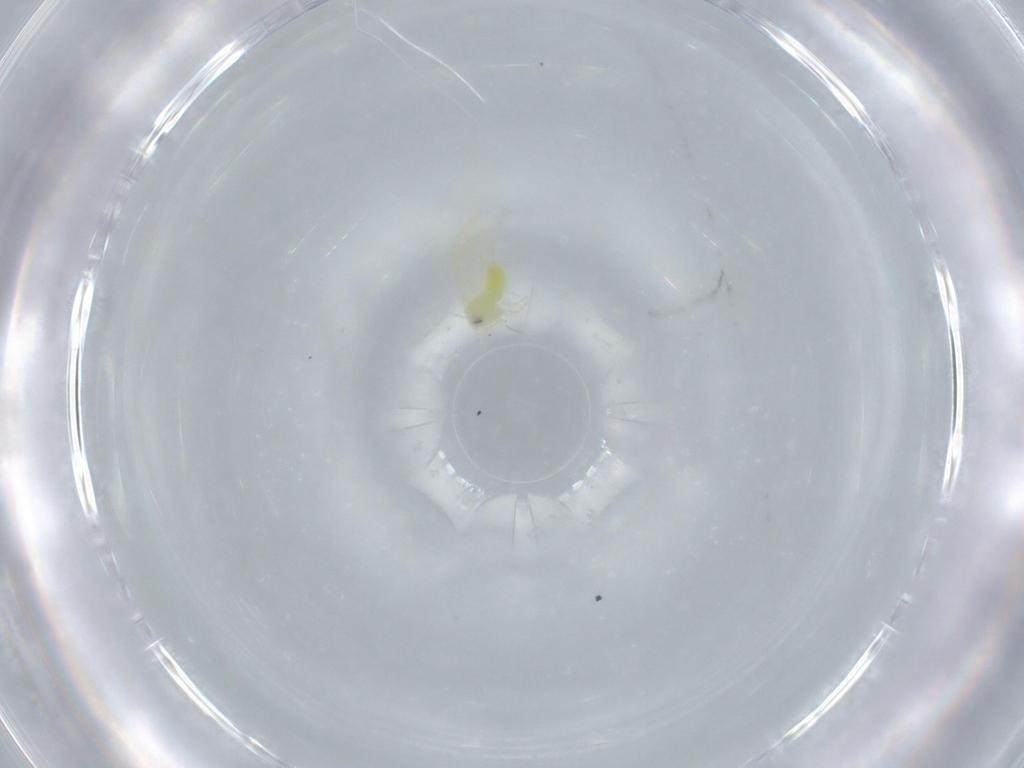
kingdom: Animalia
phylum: Arthropoda
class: Insecta
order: Hemiptera
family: Aleyrodidae
